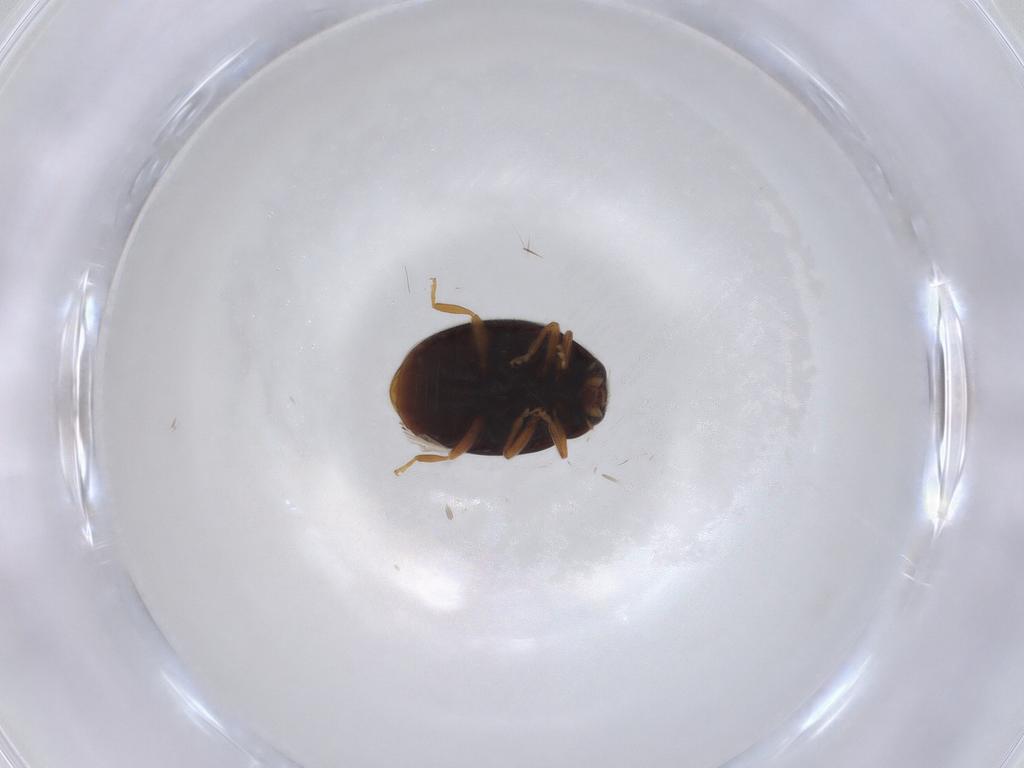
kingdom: Animalia
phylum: Arthropoda
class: Insecta
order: Coleoptera
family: Coccinellidae
